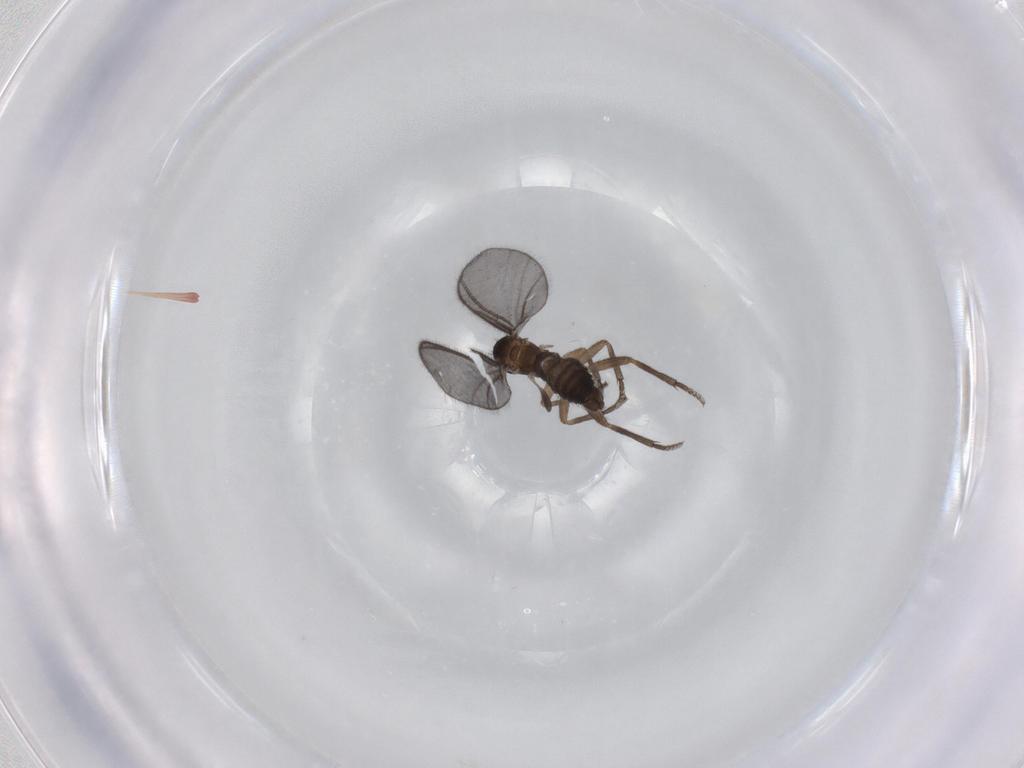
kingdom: Animalia
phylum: Arthropoda
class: Insecta
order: Diptera
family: Sciaridae
